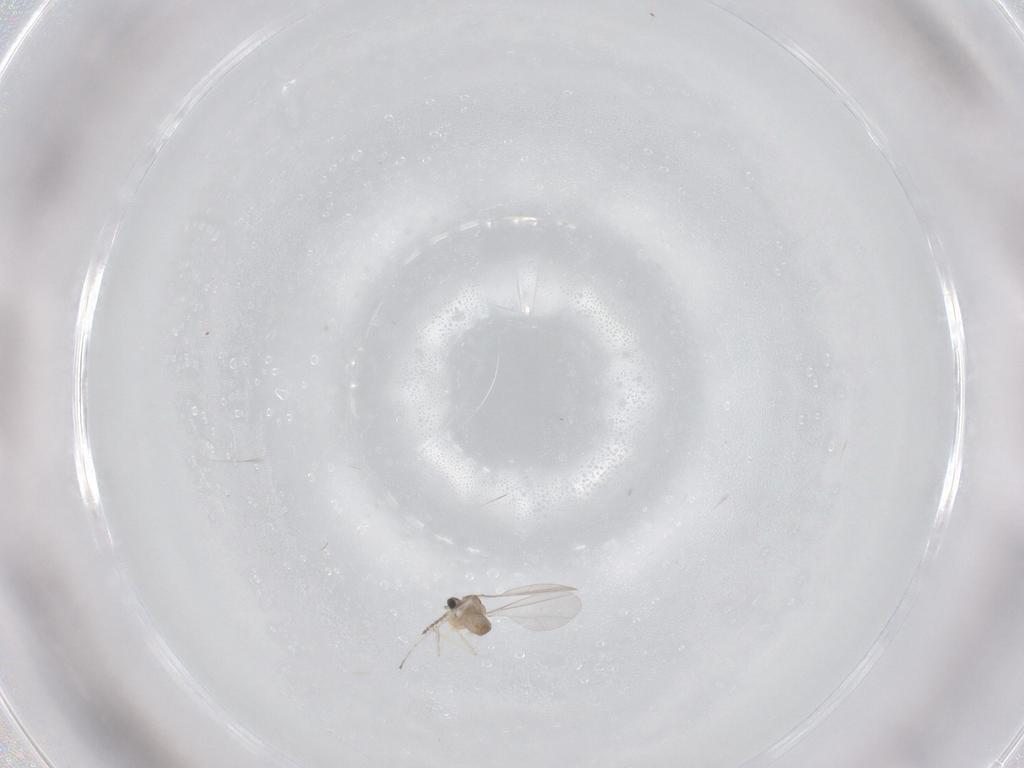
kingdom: Animalia
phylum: Arthropoda
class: Insecta
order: Diptera
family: Cecidomyiidae
